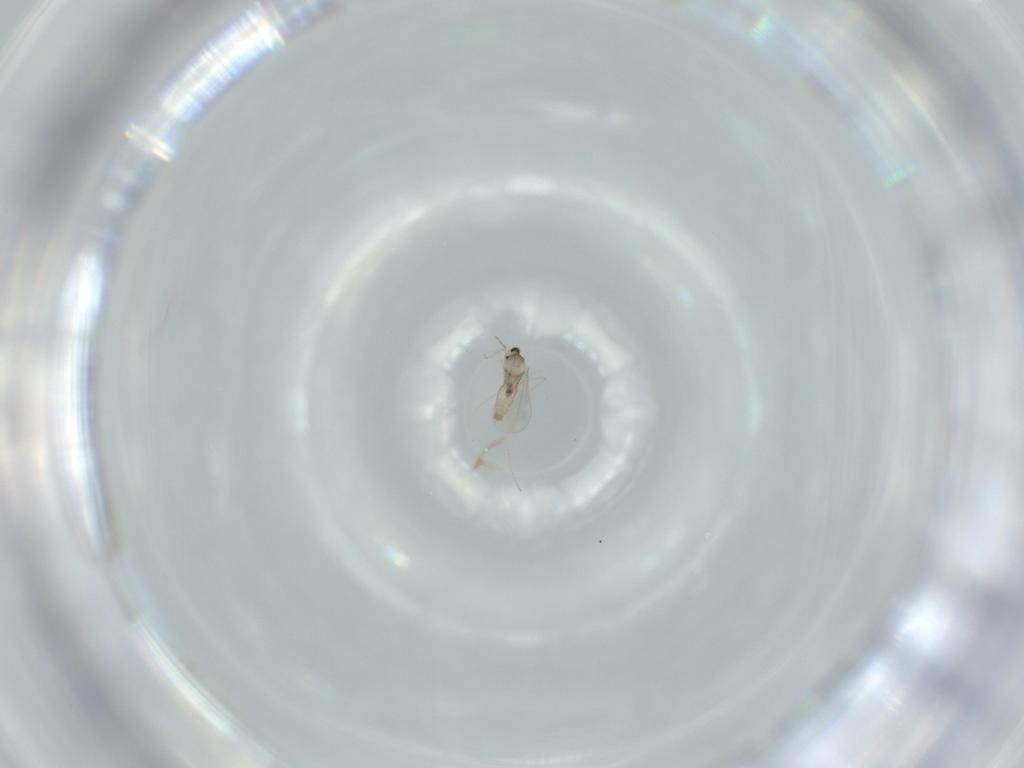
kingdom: Animalia
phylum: Arthropoda
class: Insecta
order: Diptera
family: Cecidomyiidae
